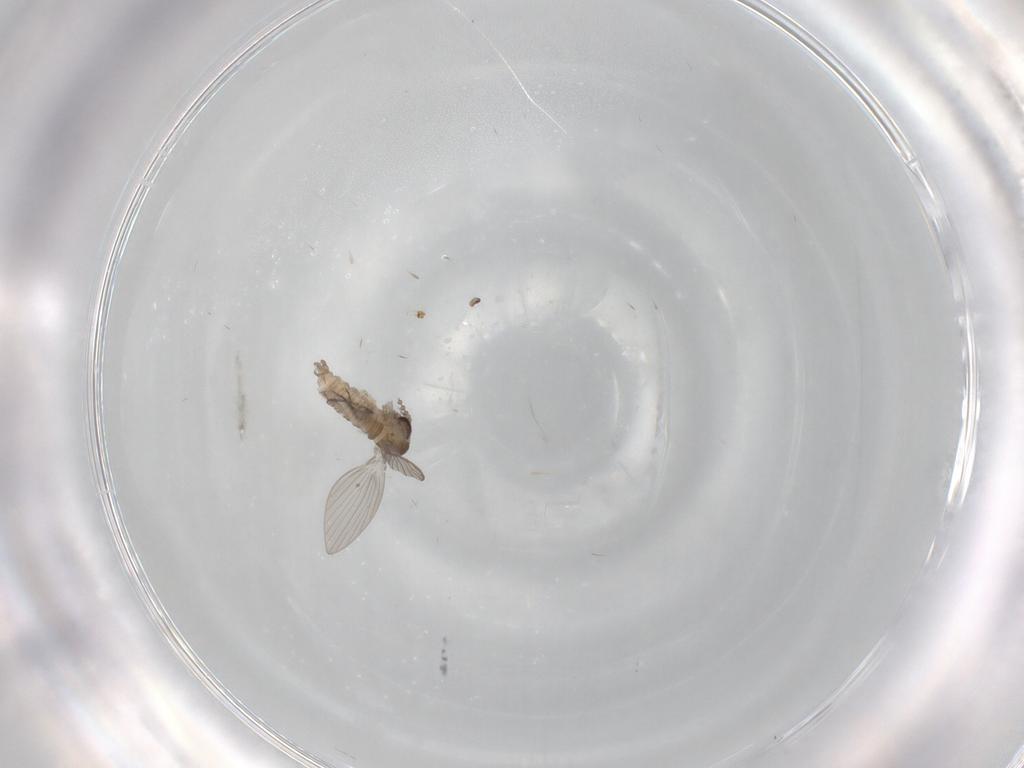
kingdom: Animalia
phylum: Arthropoda
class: Insecta
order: Diptera
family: Psychodidae
